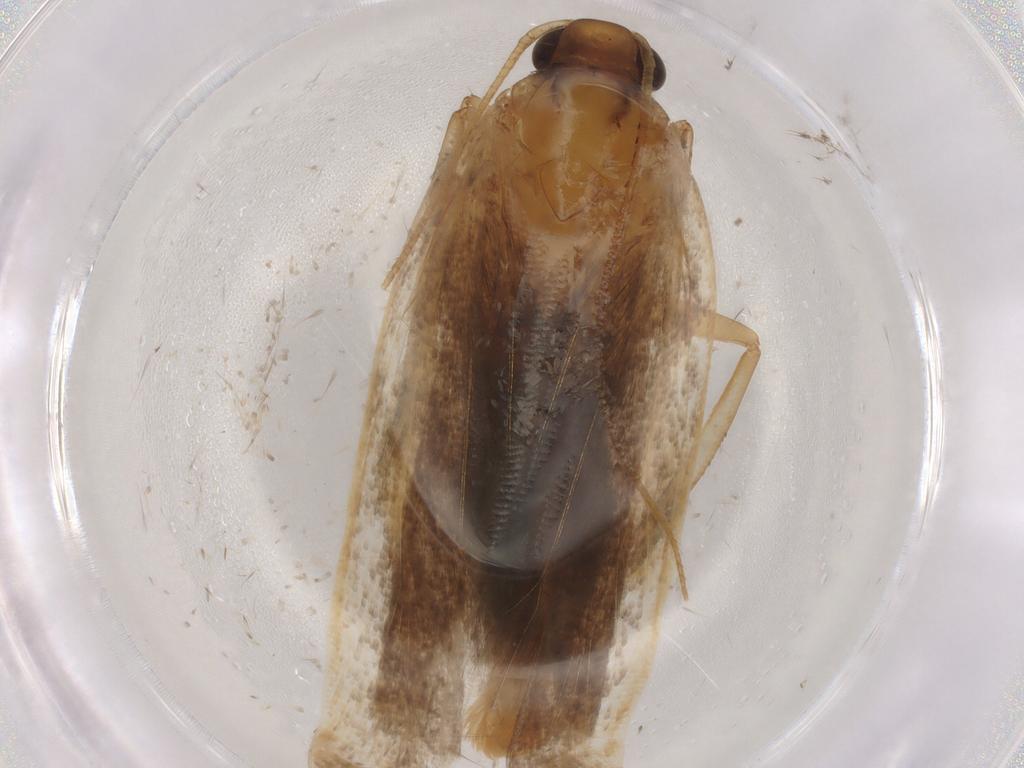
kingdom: Animalia
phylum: Arthropoda
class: Insecta
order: Lepidoptera
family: Gelechiidae
